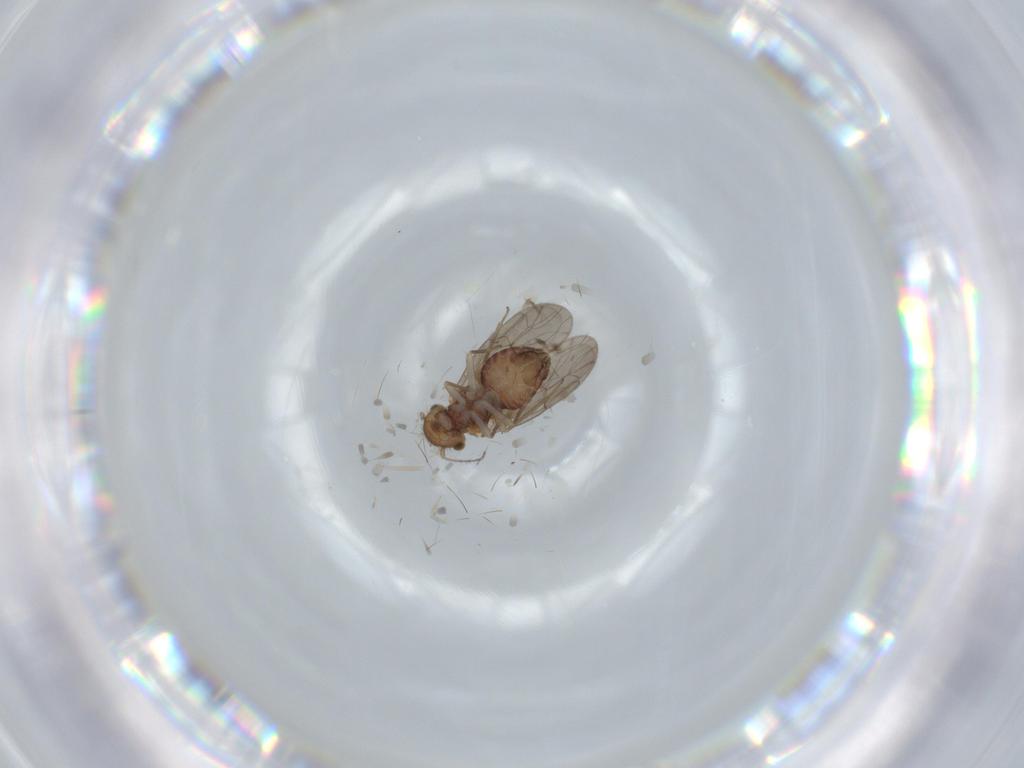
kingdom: Animalia
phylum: Arthropoda
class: Insecta
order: Psocodea
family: Ectopsocidae
